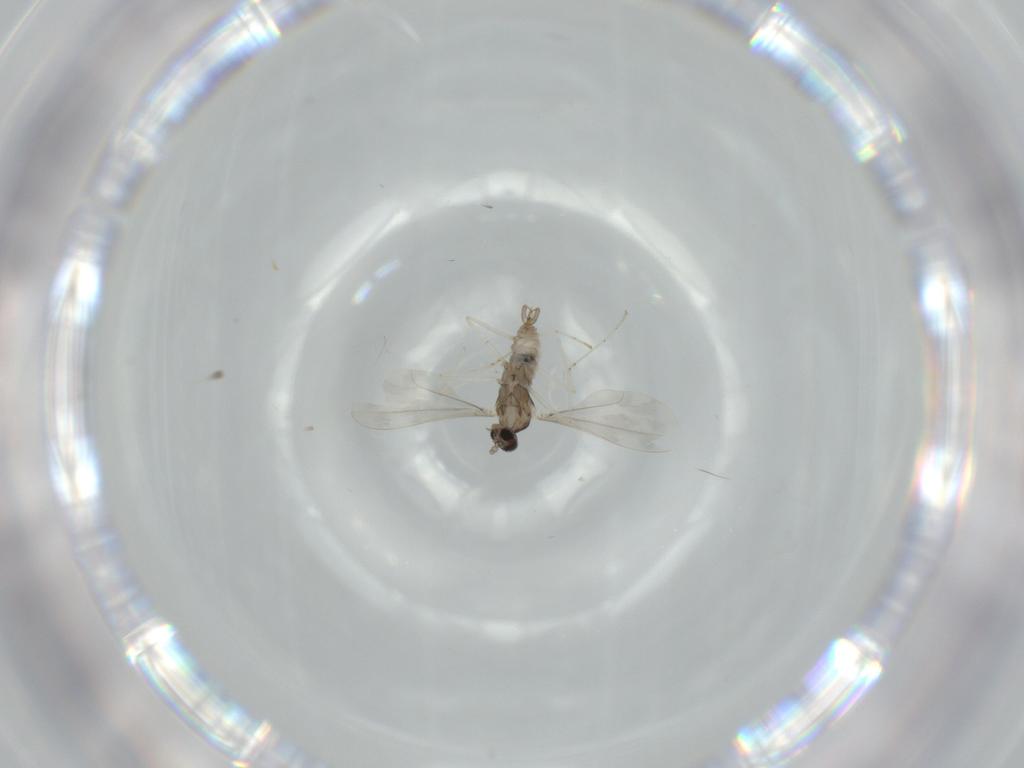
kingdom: Animalia
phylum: Arthropoda
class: Insecta
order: Diptera
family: Cecidomyiidae
